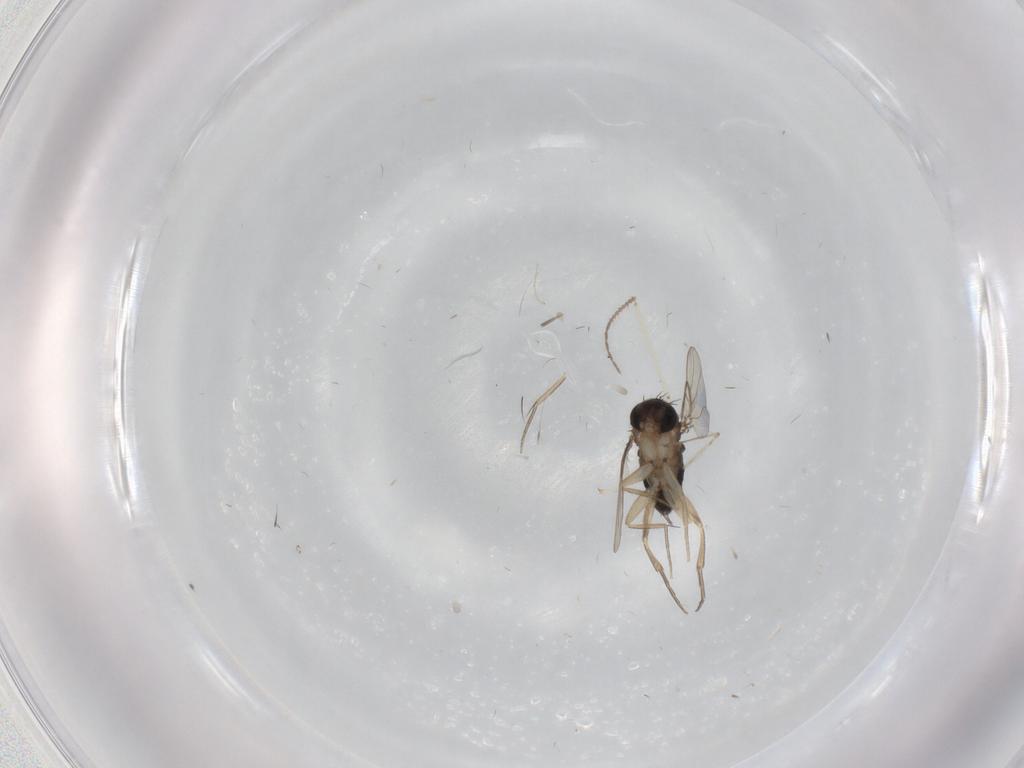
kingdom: Animalia
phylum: Arthropoda
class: Insecta
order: Diptera
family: Phoridae
